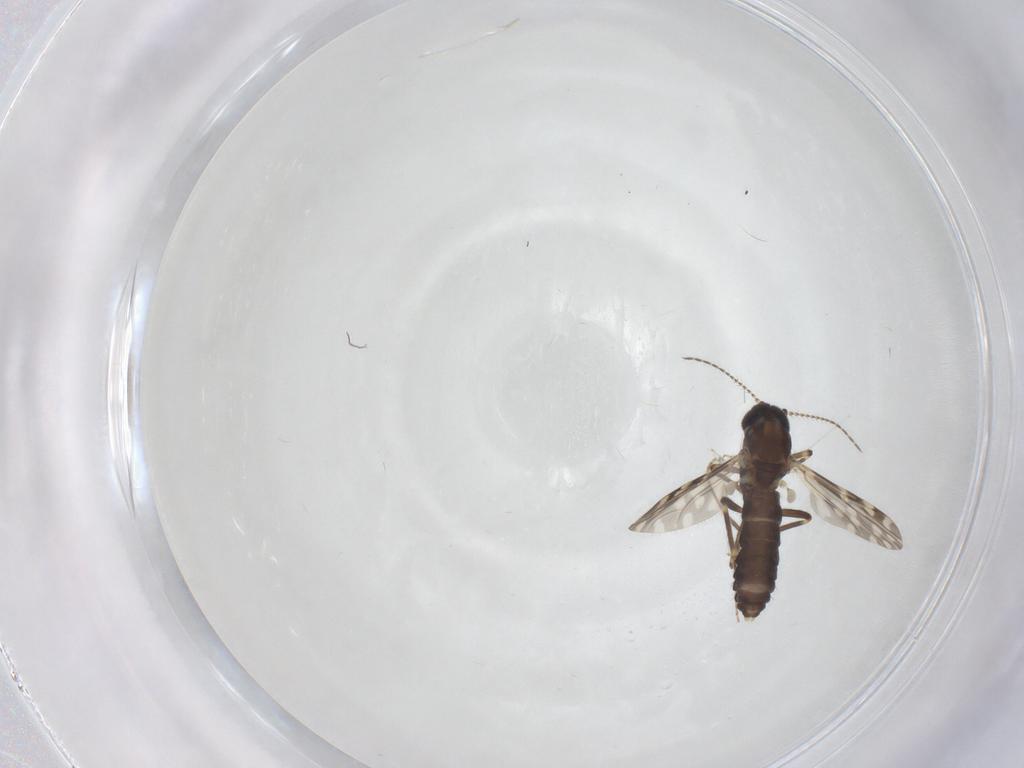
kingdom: Animalia
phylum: Arthropoda
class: Insecta
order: Diptera
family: Ceratopogonidae
